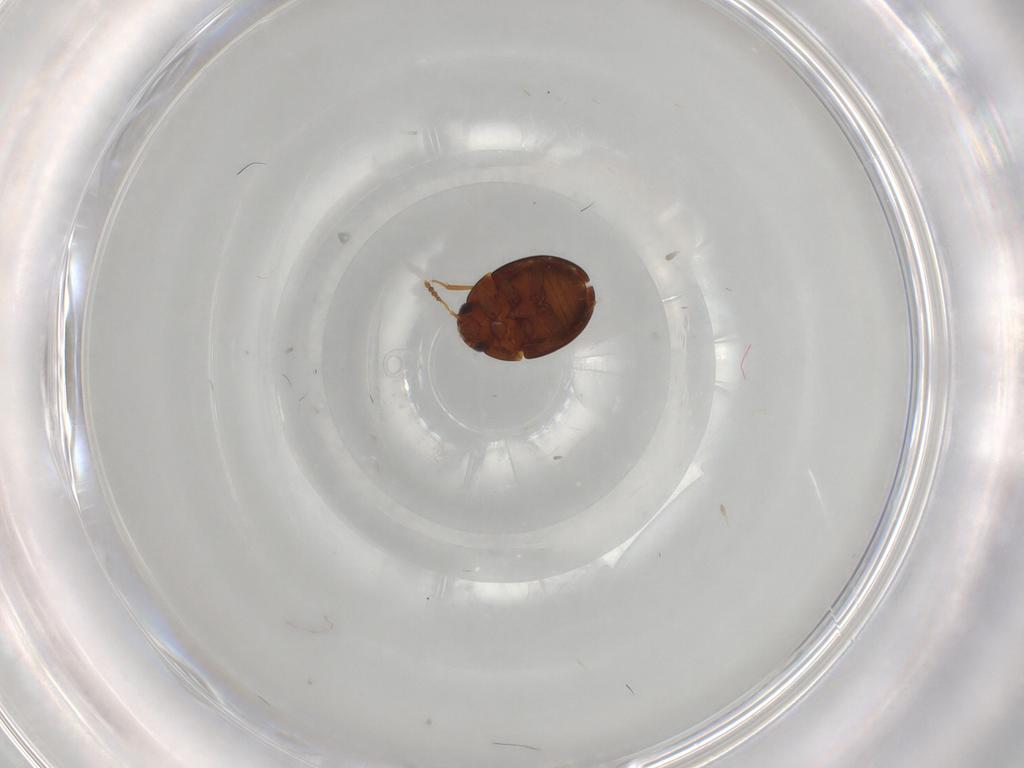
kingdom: Animalia
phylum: Arthropoda
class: Insecta
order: Coleoptera
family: Leiodidae
